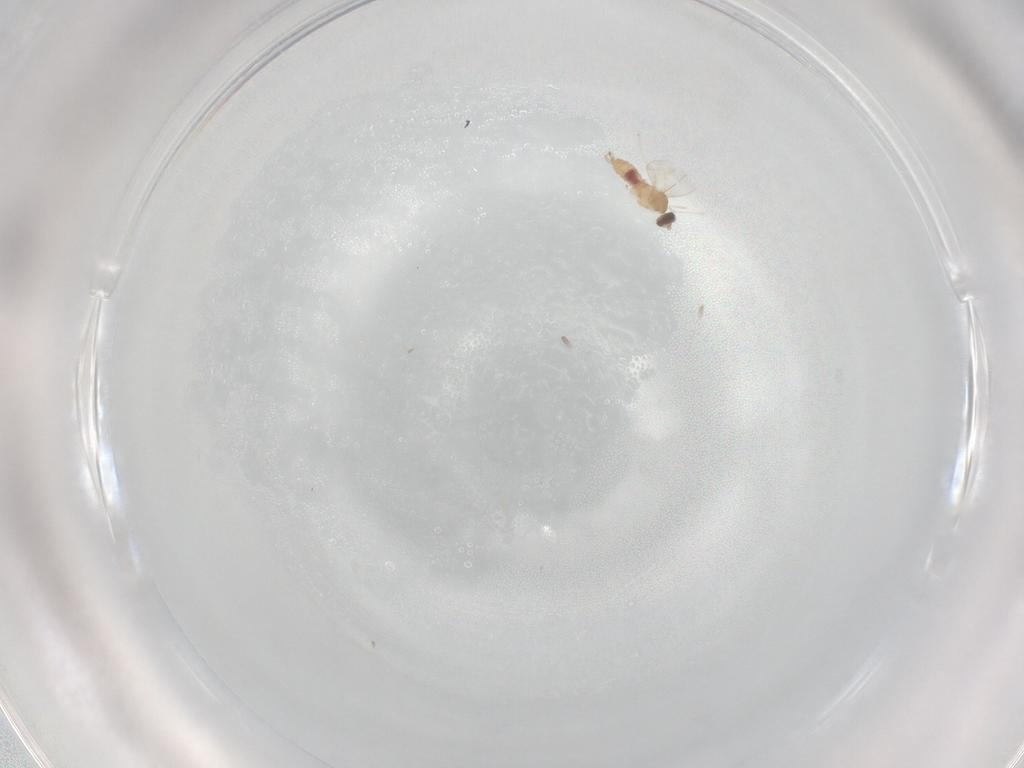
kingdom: Animalia
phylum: Arthropoda
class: Insecta
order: Diptera
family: Cecidomyiidae
